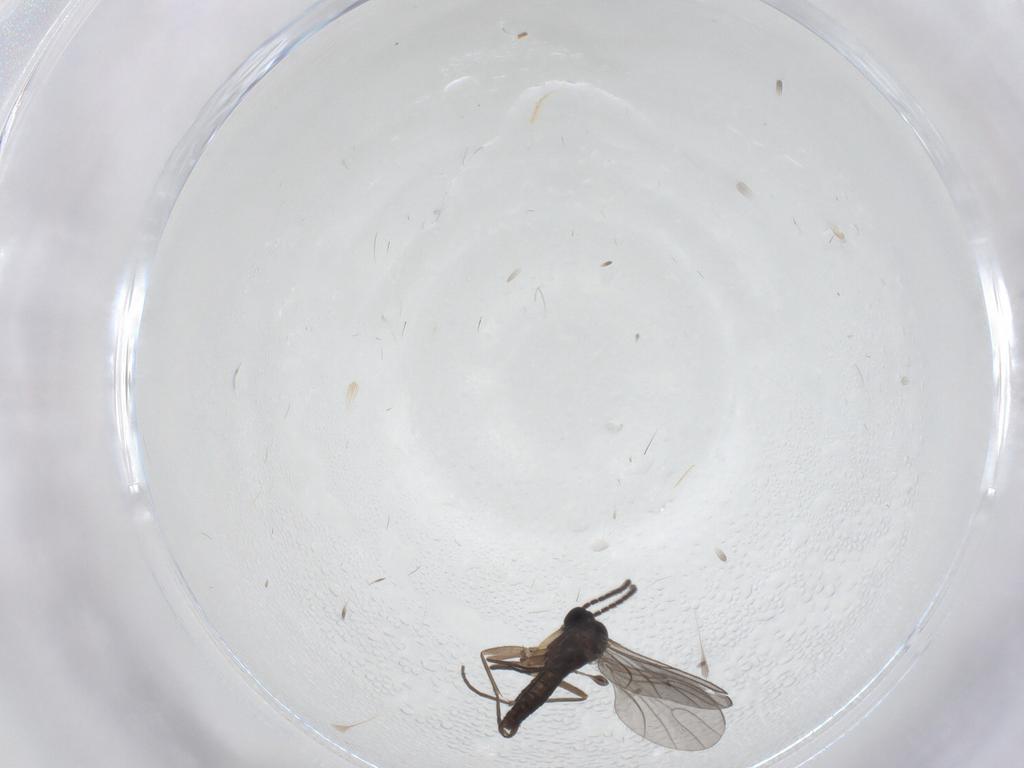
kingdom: Animalia
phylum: Arthropoda
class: Insecta
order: Diptera
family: Sciaridae
